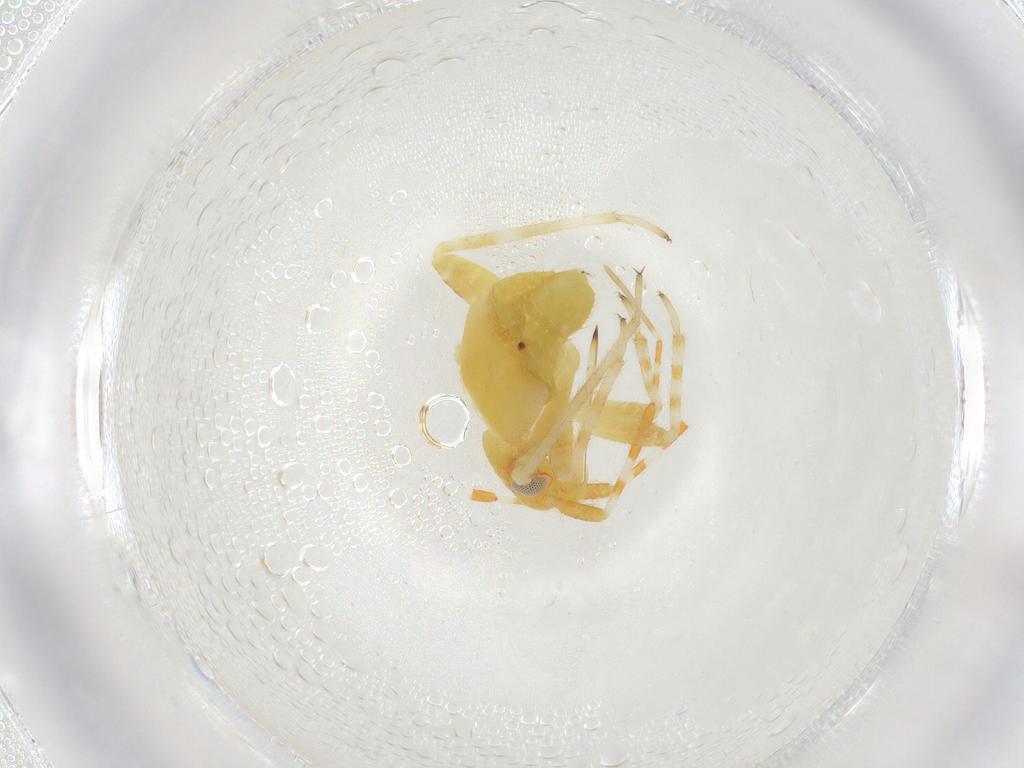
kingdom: Animalia
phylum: Arthropoda
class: Insecta
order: Hemiptera
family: Miridae
